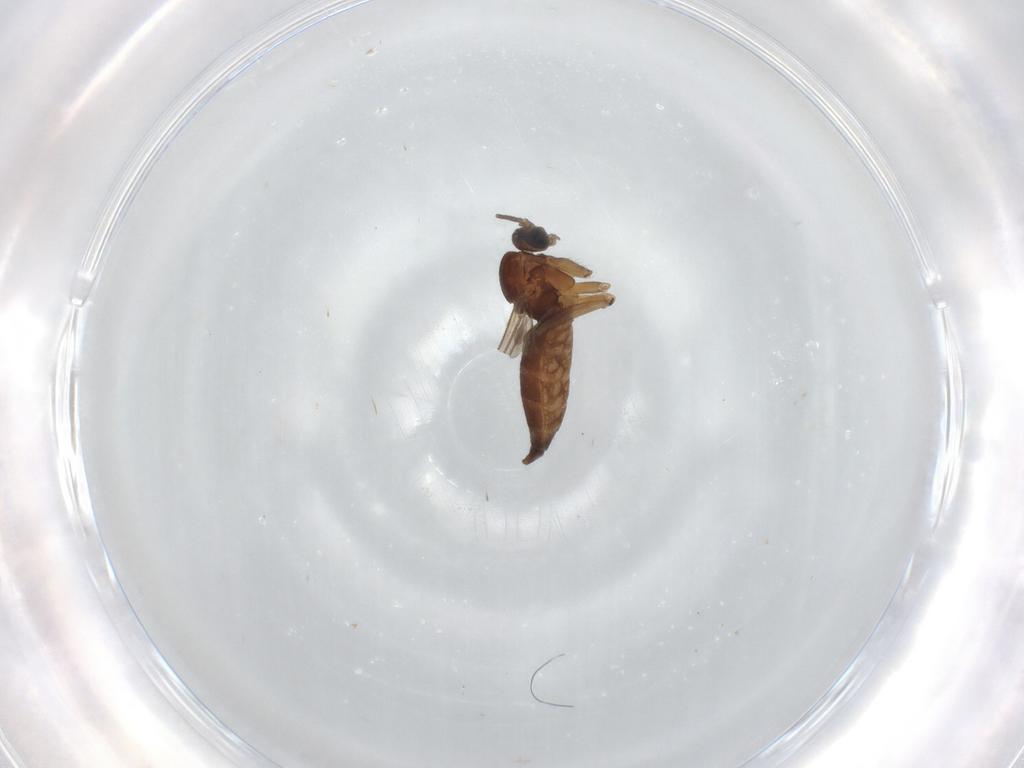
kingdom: Animalia
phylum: Arthropoda
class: Insecta
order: Diptera
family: Sciaridae
